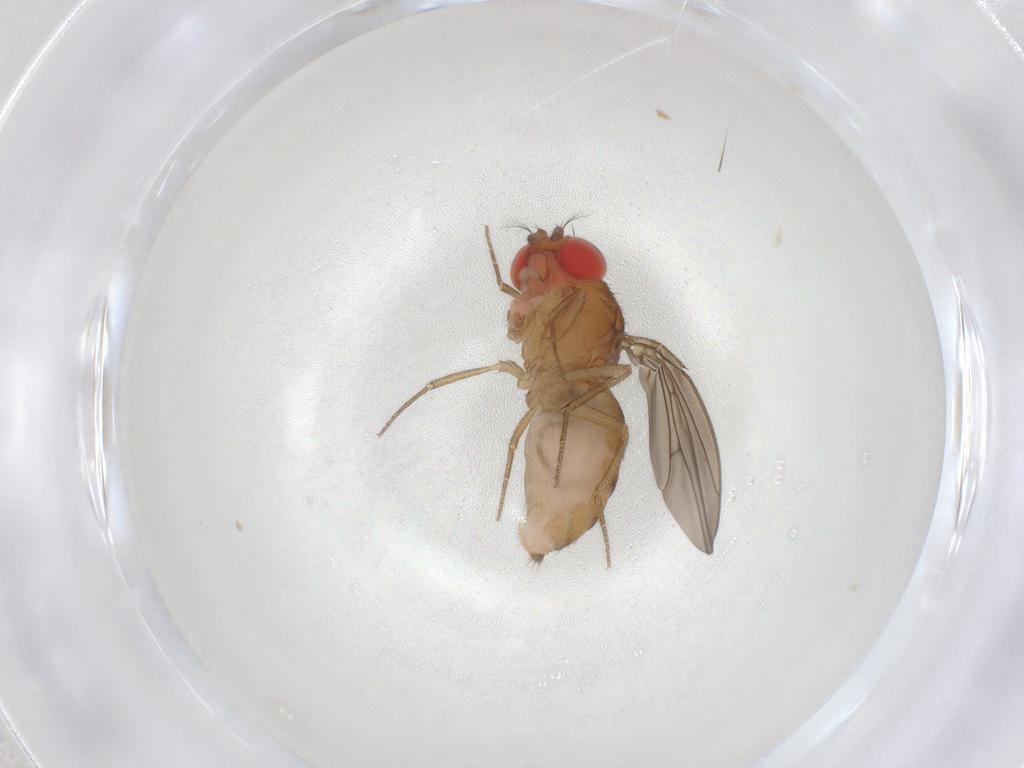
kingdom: Animalia
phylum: Arthropoda
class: Insecta
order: Diptera
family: Drosophilidae
